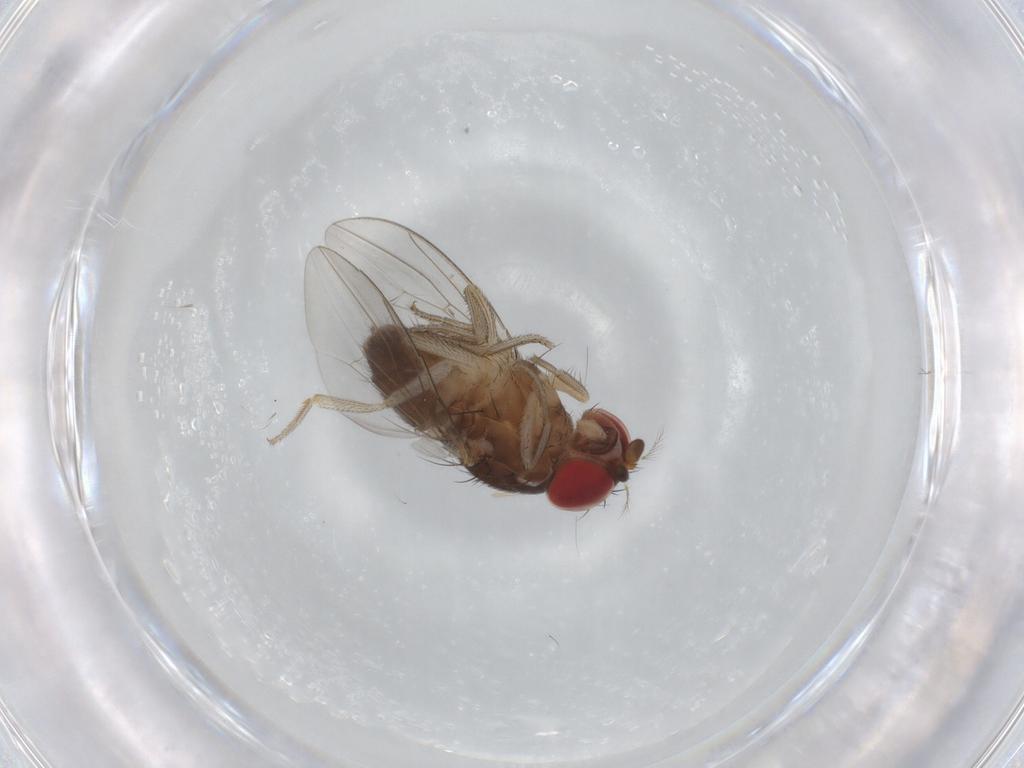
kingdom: Animalia
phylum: Arthropoda
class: Insecta
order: Diptera
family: Drosophilidae
